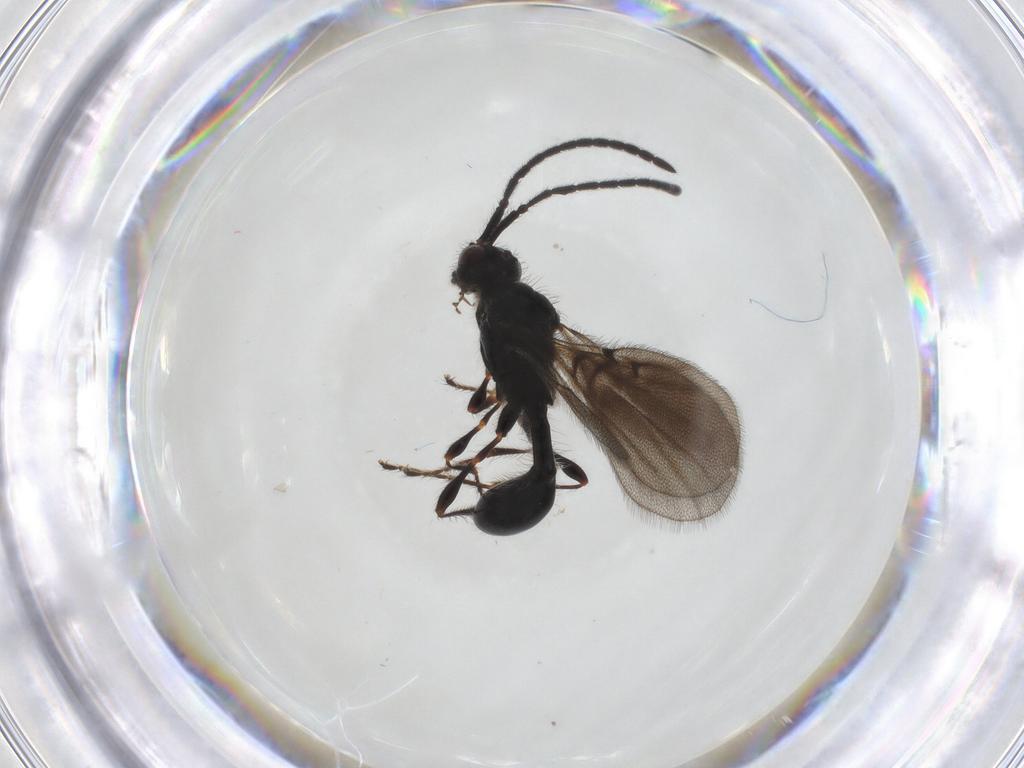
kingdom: Animalia
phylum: Arthropoda
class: Insecta
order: Hymenoptera
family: Diapriidae
